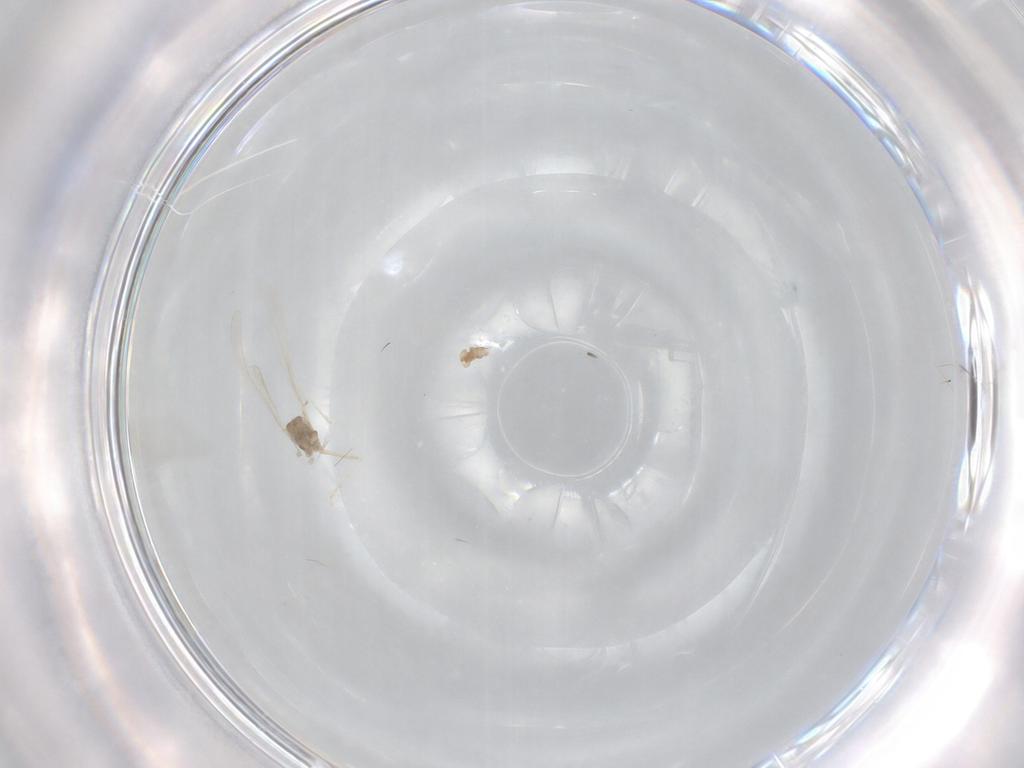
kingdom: Animalia
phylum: Arthropoda
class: Insecta
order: Diptera
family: Cecidomyiidae
